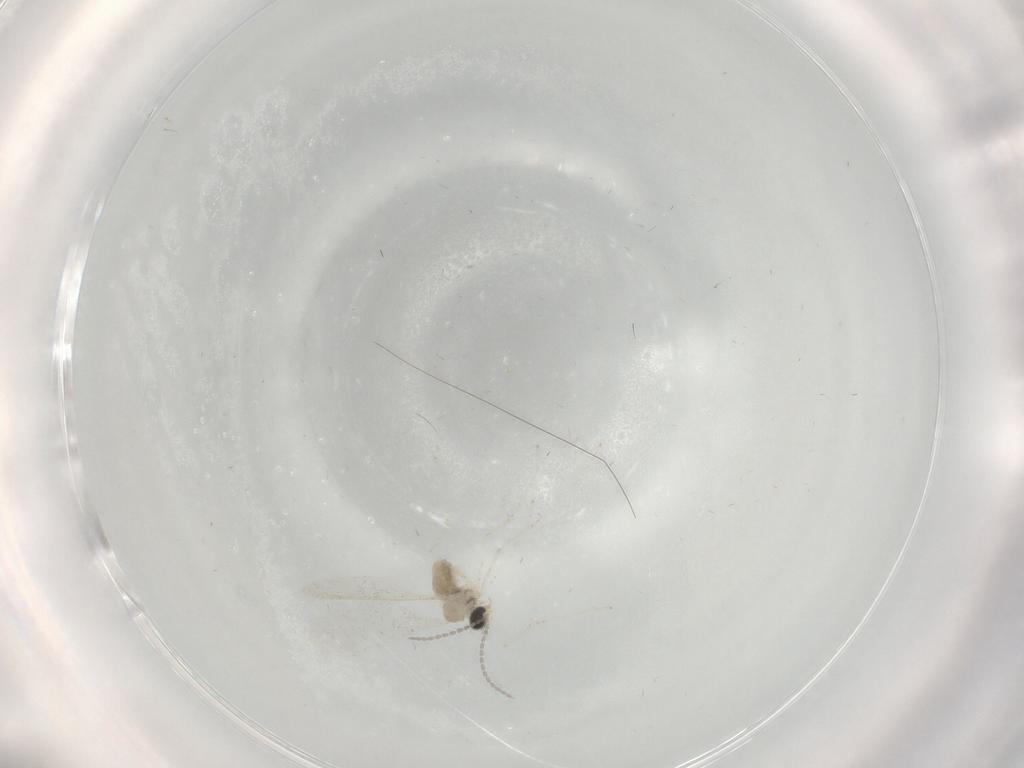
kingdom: Animalia
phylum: Arthropoda
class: Insecta
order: Diptera
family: Cecidomyiidae
